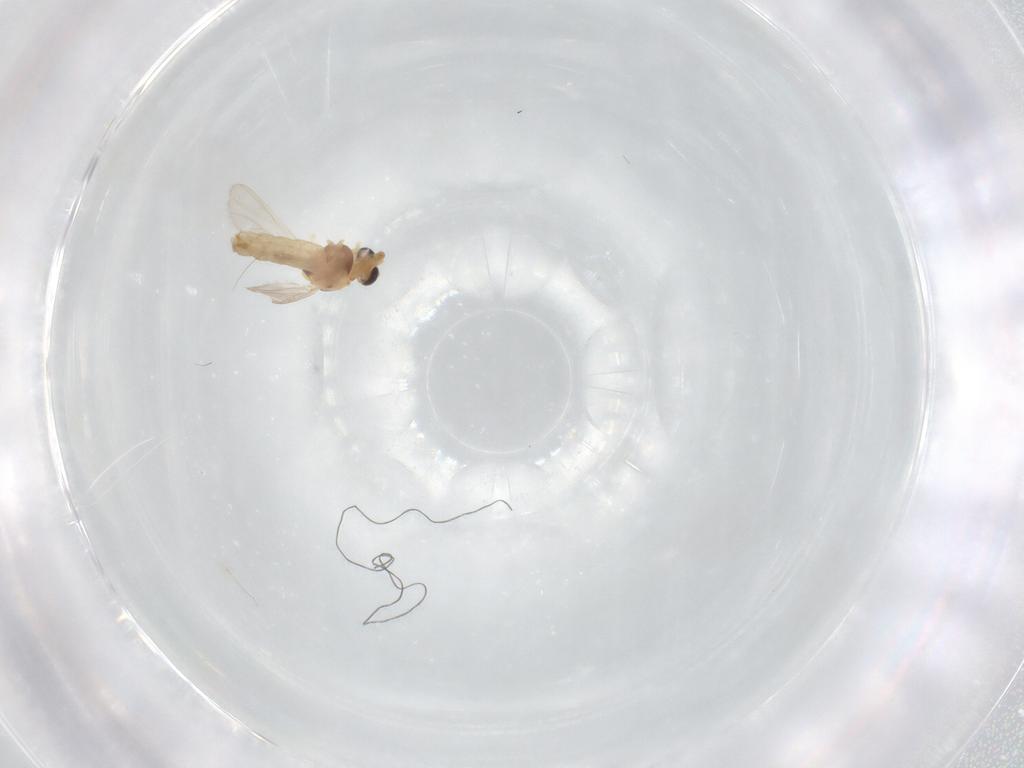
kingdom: Animalia
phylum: Arthropoda
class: Insecta
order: Diptera
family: Chironomidae
